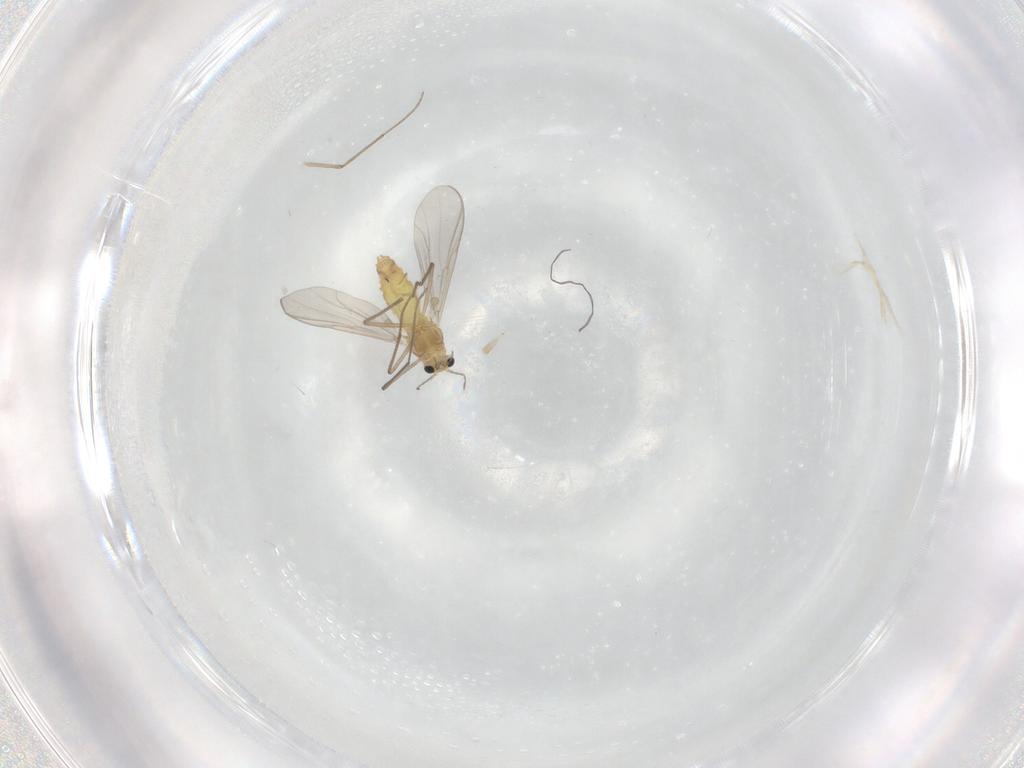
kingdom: Animalia
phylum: Arthropoda
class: Insecta
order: Diptera
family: Chironomidae
